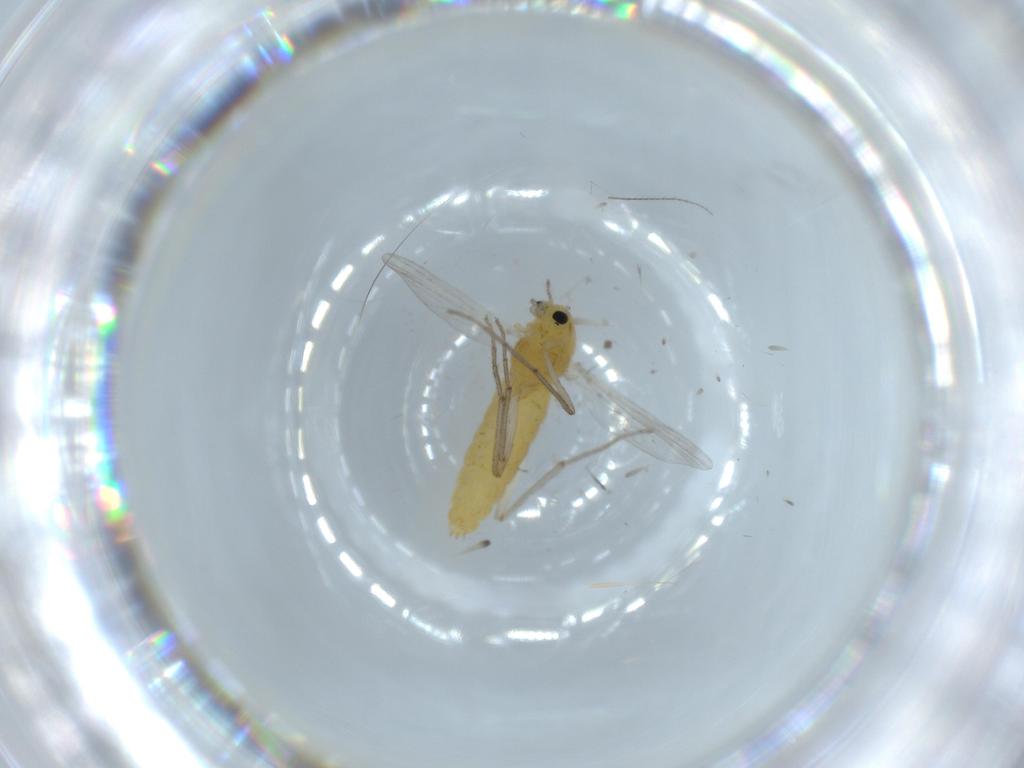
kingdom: Animalia
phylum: Arthropoda
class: Insecta
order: Diptera
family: Chironomidae
